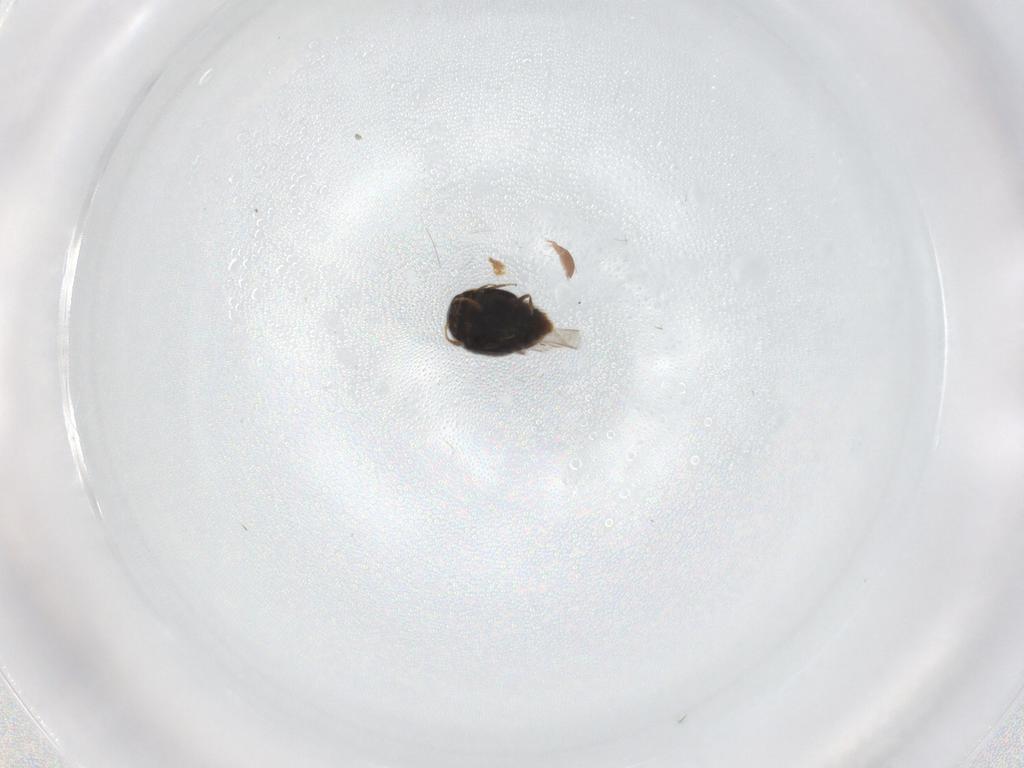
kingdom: Animalia
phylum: Arthropoda
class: Insecta
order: Coleoptera
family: Staphylinidae
